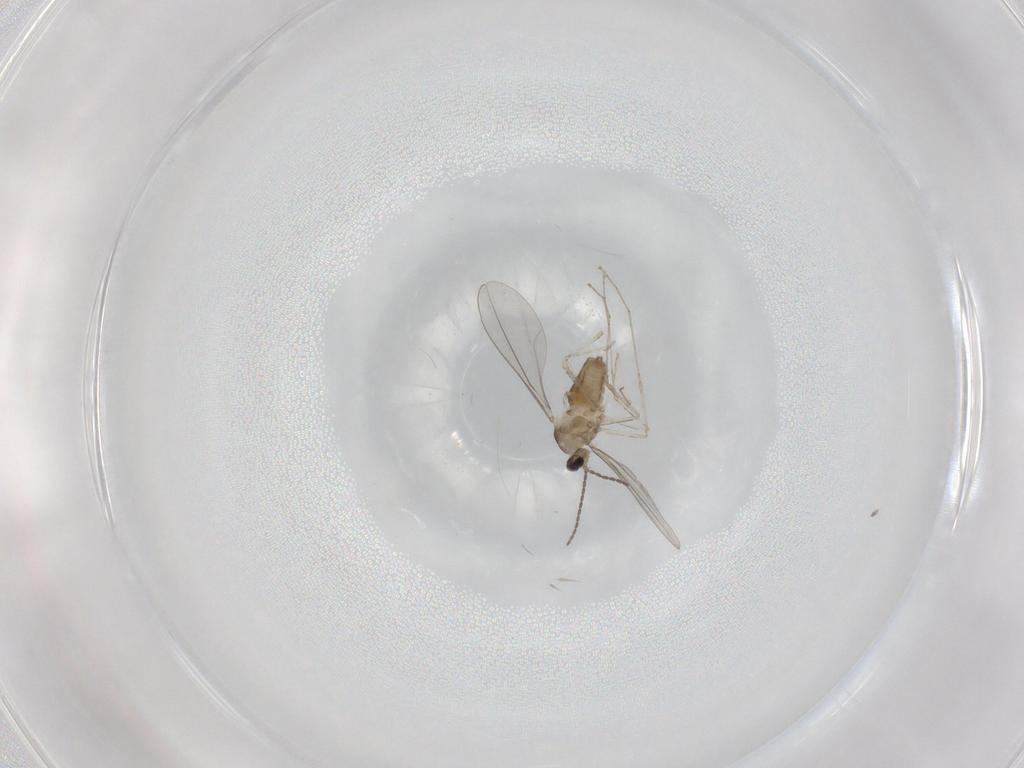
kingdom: Animalia
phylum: Arthropoda
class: Insecta
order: Diptera
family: Cecidomyiidae
